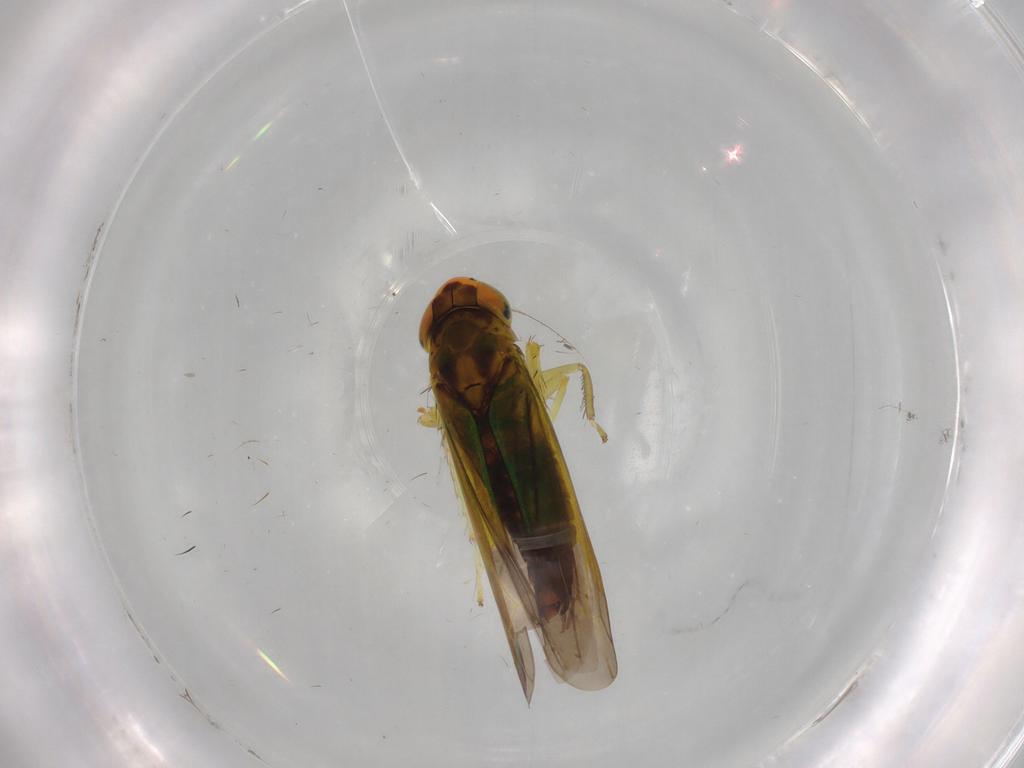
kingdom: Animalia
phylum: Arthropoda
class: Insecta
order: Hemiptera
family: Cicadellidae
